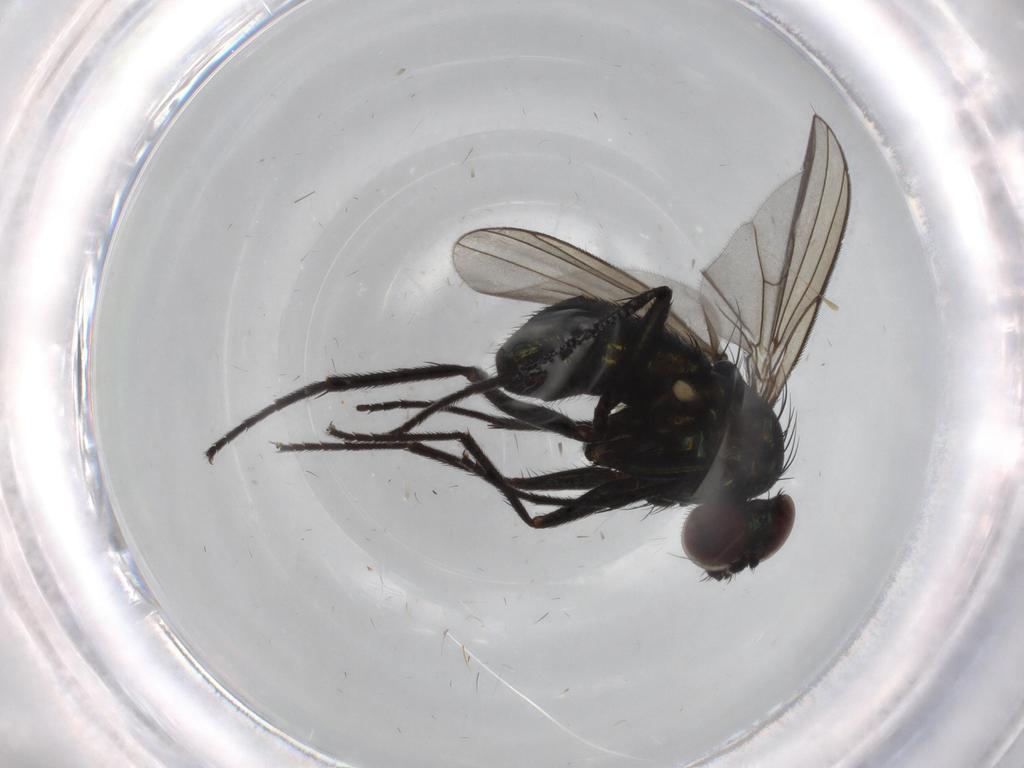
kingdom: Animalia
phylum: Arthropoda
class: Insecta
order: Diptera
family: Dolichopodidae
